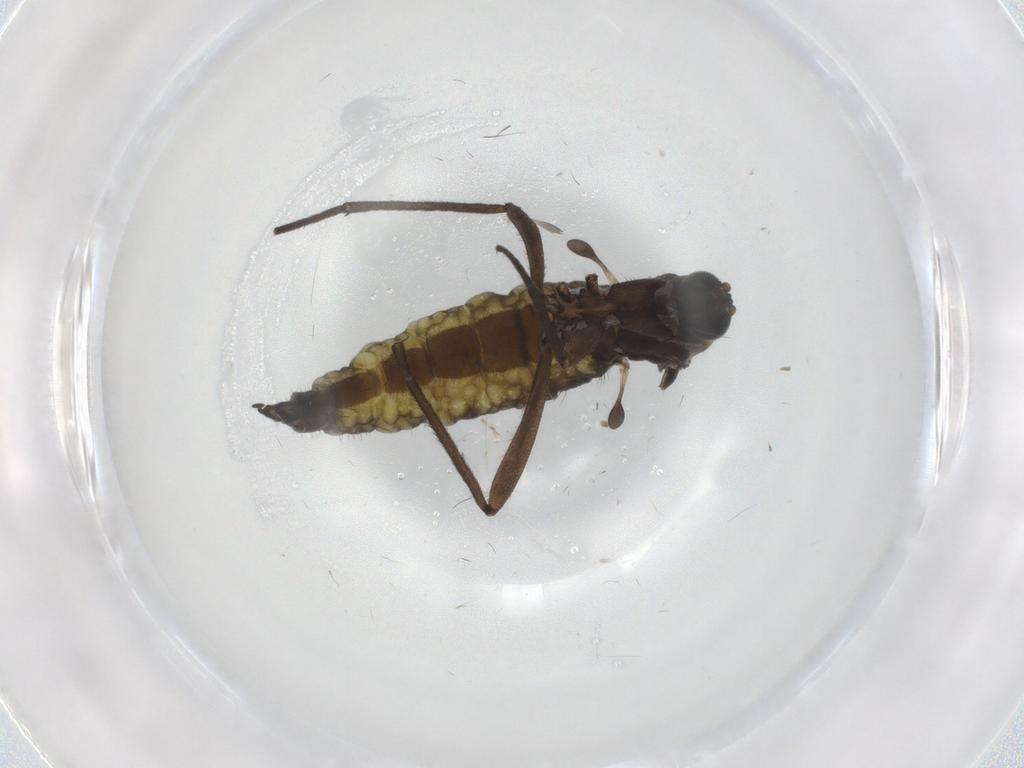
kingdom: Animalia
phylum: Arthropoda
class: Insecta
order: Diptera
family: Sciaridae
